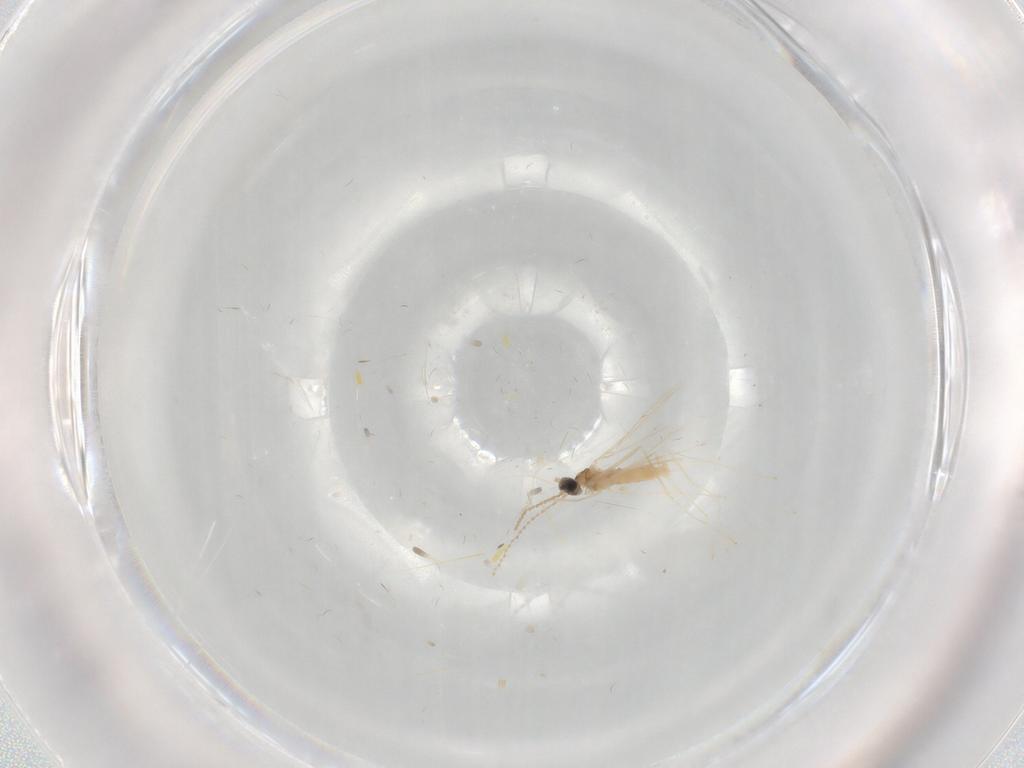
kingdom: Animalia
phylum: Arthropoda
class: Insecta
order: Diptera
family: Cecidomyiidae
